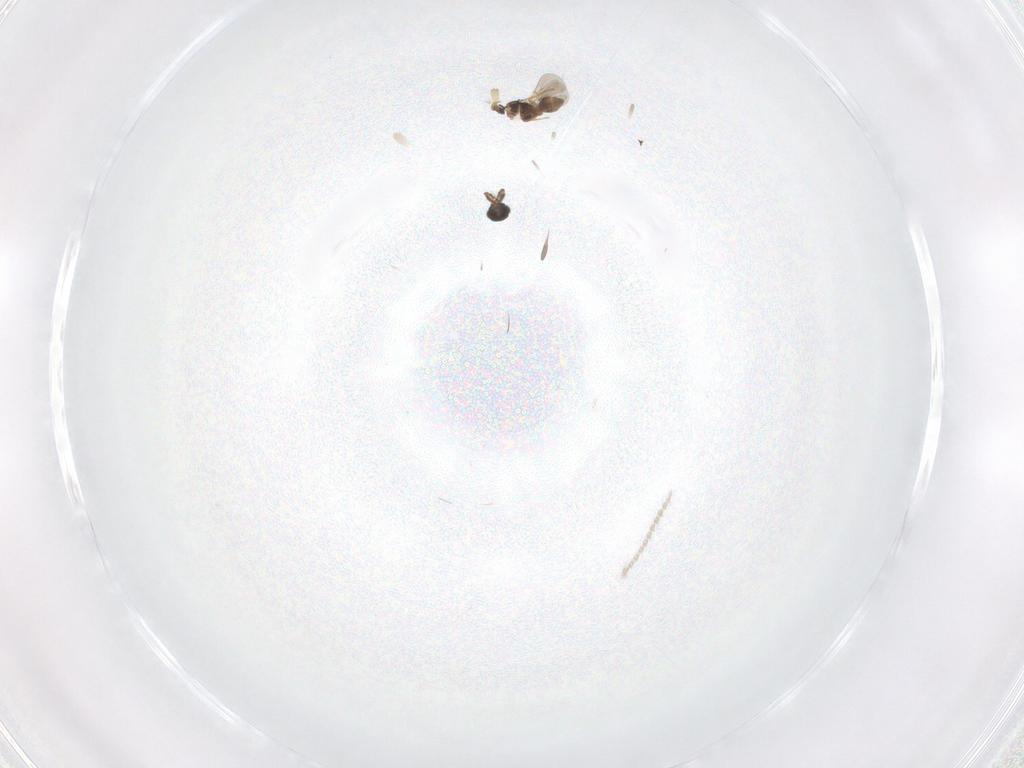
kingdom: Animalia
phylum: Arthropoda
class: Insecta
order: Hymenoptera
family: Platygastridae
